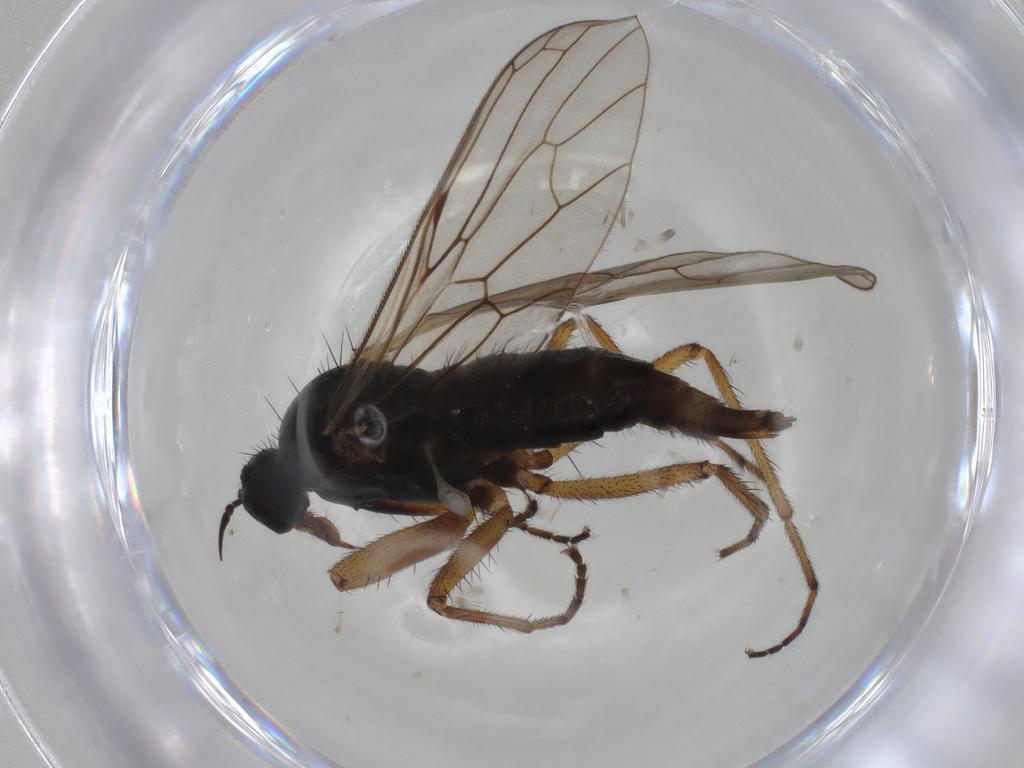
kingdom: Animalia
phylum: Arthropoda
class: Insecta
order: Diptera
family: Empididae
